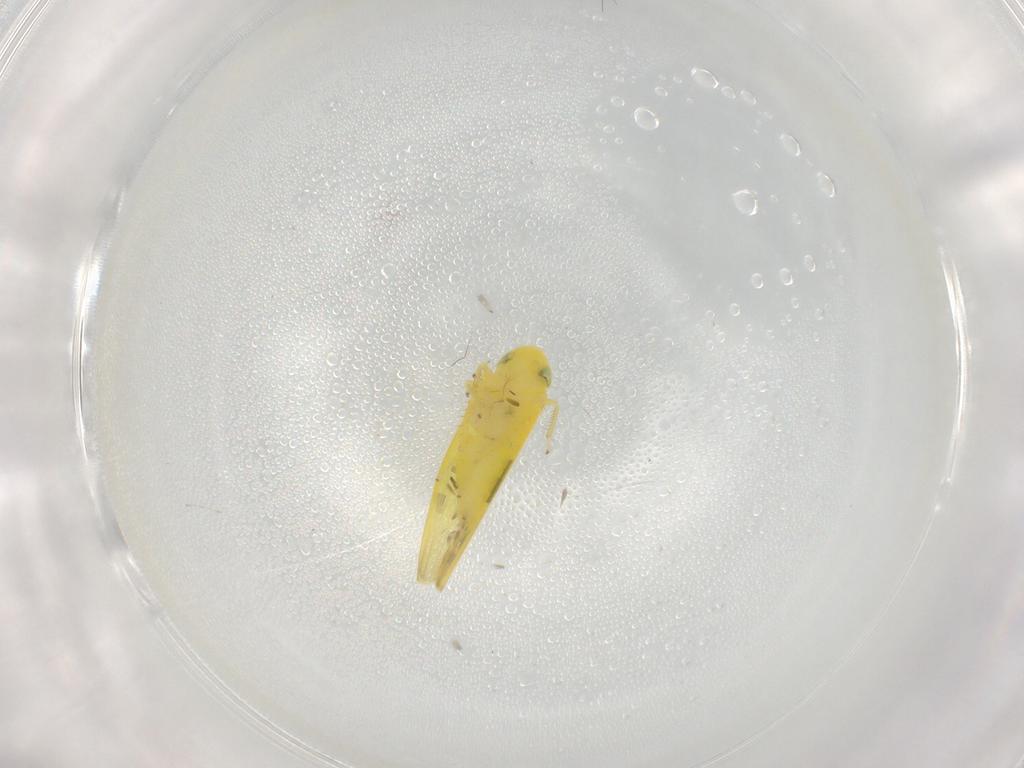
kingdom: Animalia
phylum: Arthropoda
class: Insecta
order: Hemiptera
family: Cicadellidae
